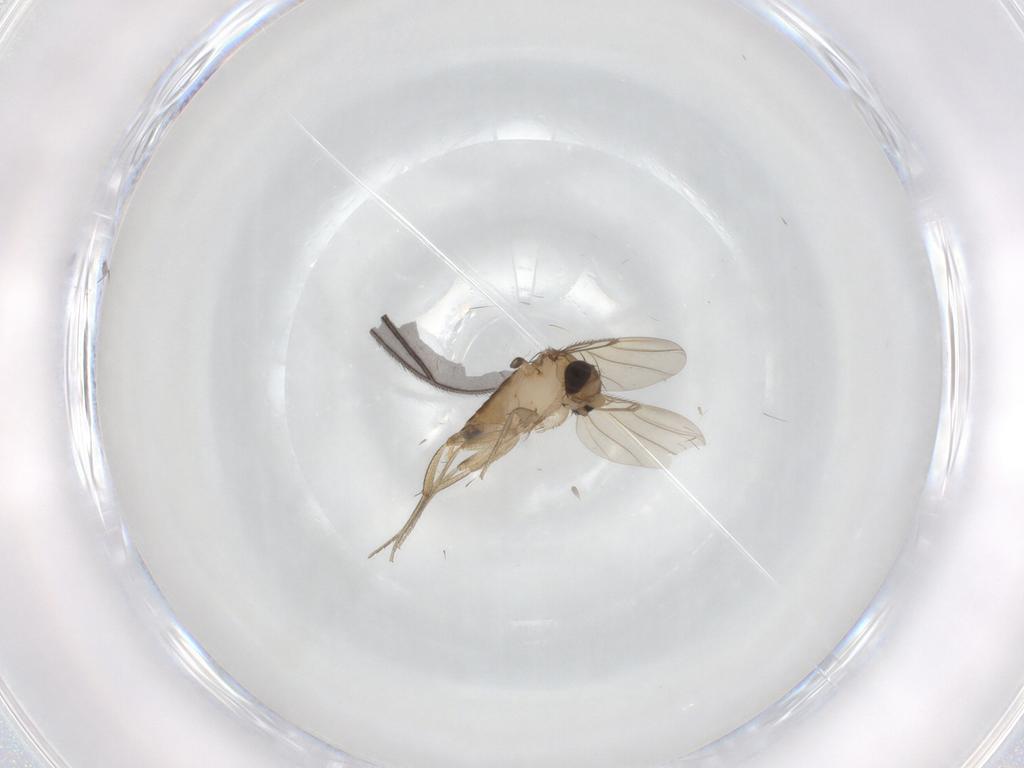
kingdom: Animalia
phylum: Arthropoda
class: Insecta
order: Diptera
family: Phoridae
